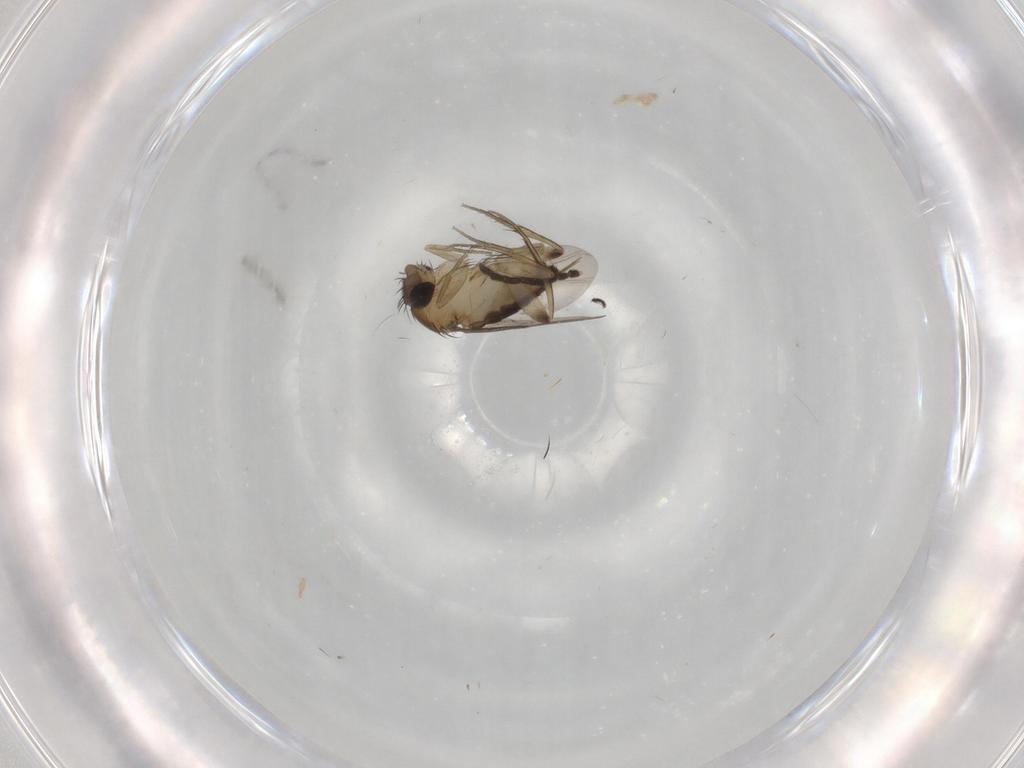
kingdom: Animalia
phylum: Arthropoda
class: Insecta
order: Diptera
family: Phoridae
